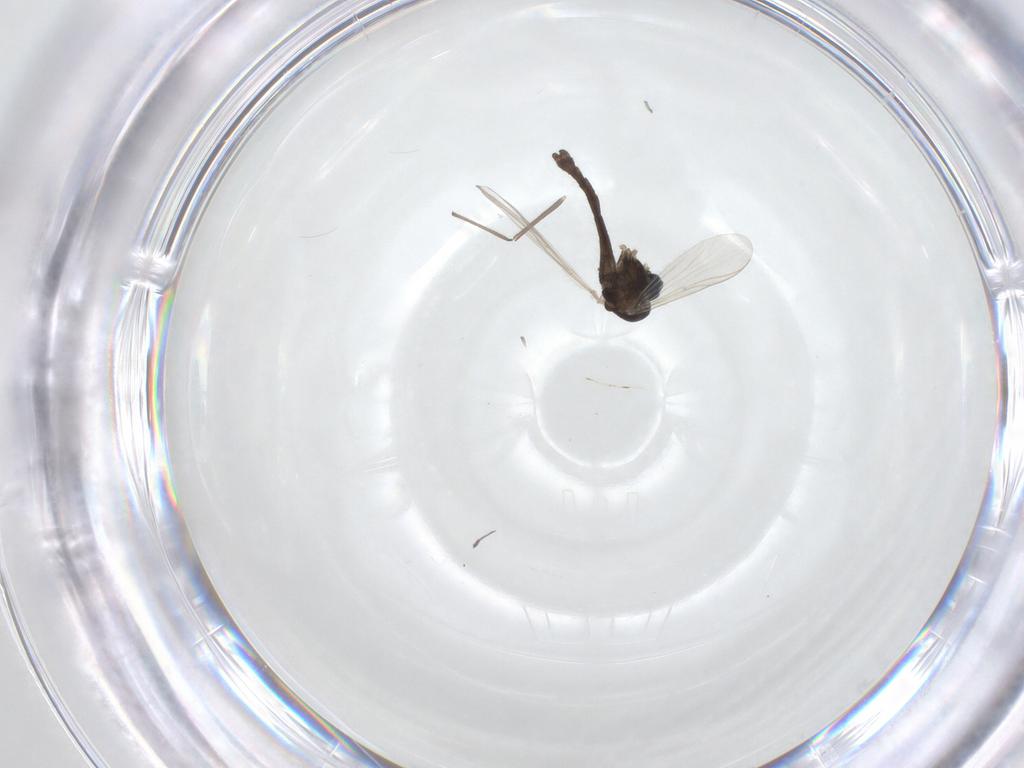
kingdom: Animalia
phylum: Arthropoda
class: Insecta
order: Diptera
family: Chironomidae
